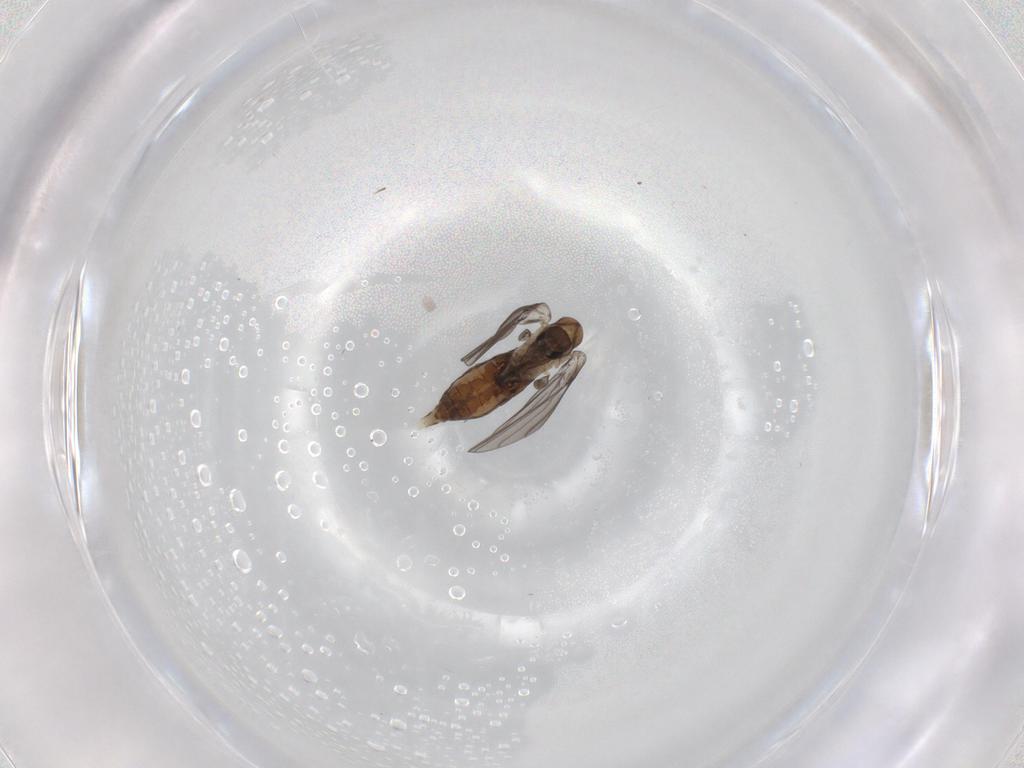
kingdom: Animalia
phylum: Arthropoda
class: Insecta
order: Diptera
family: Psychodidae
